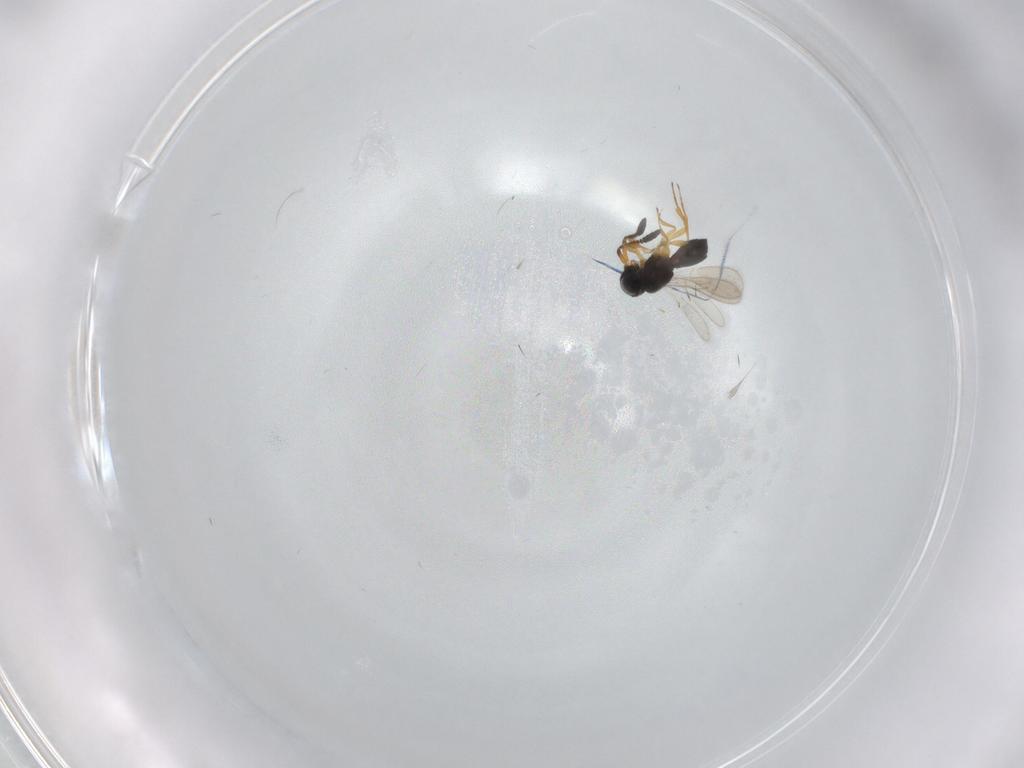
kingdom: Animalia
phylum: Arthropoda
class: Insecta
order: Hymenoptera
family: Scelionidae
